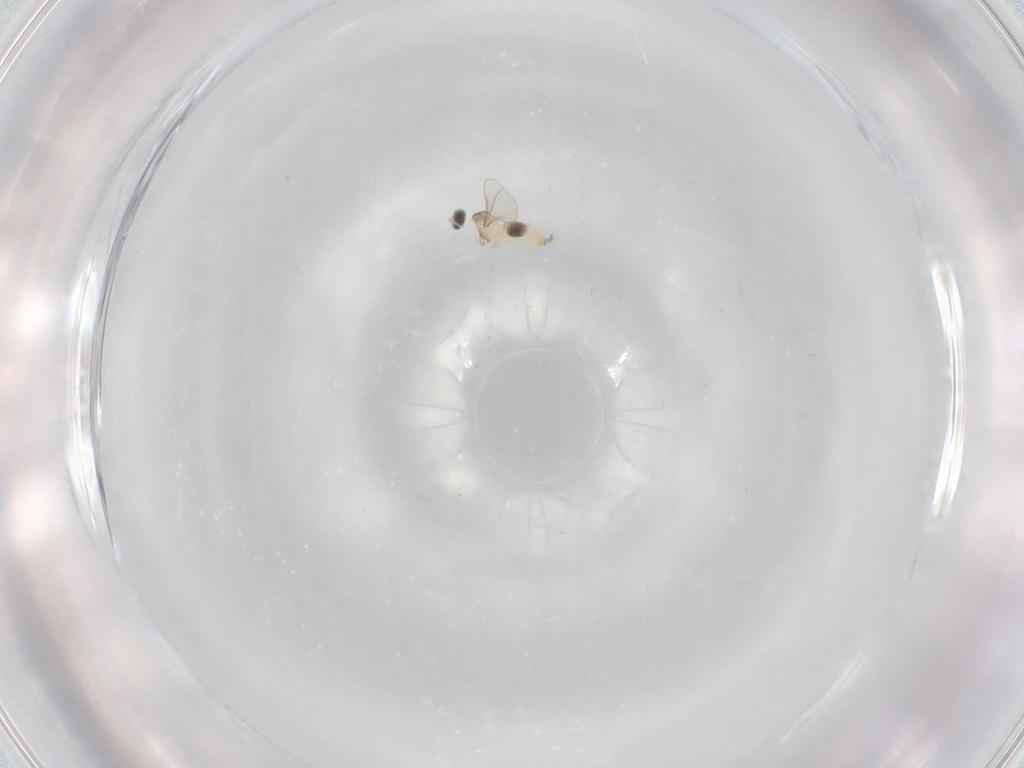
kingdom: Animalia
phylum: Arthropoda
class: Insecta
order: Diptera
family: Cecidomyiidae
